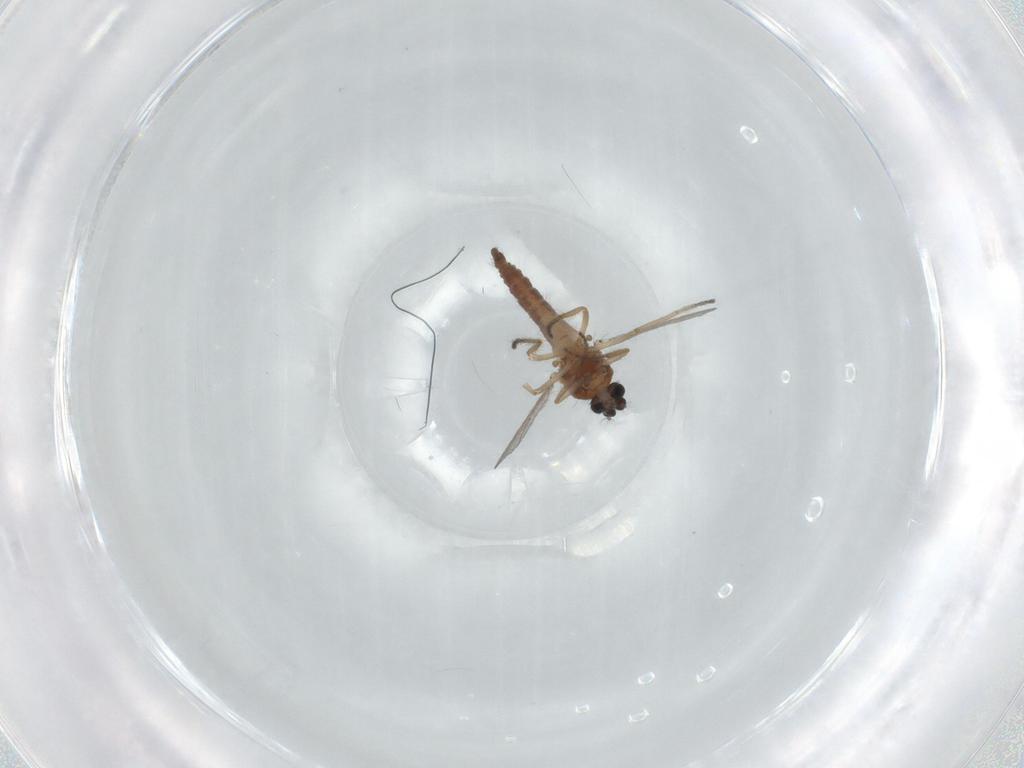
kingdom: Animalia
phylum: Arthropoda
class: Insecta
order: Diptera
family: Ceratopogonidae
